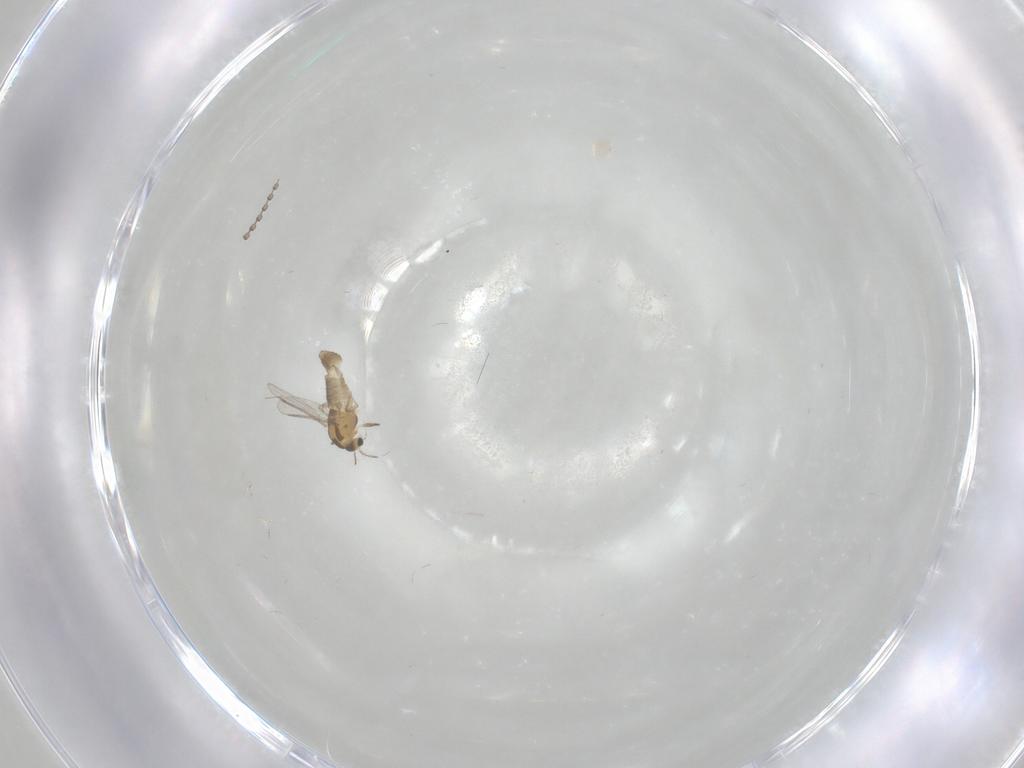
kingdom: Animalia
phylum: Arthropoda
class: Insecta
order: Diptera
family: Cecidomyiidae
